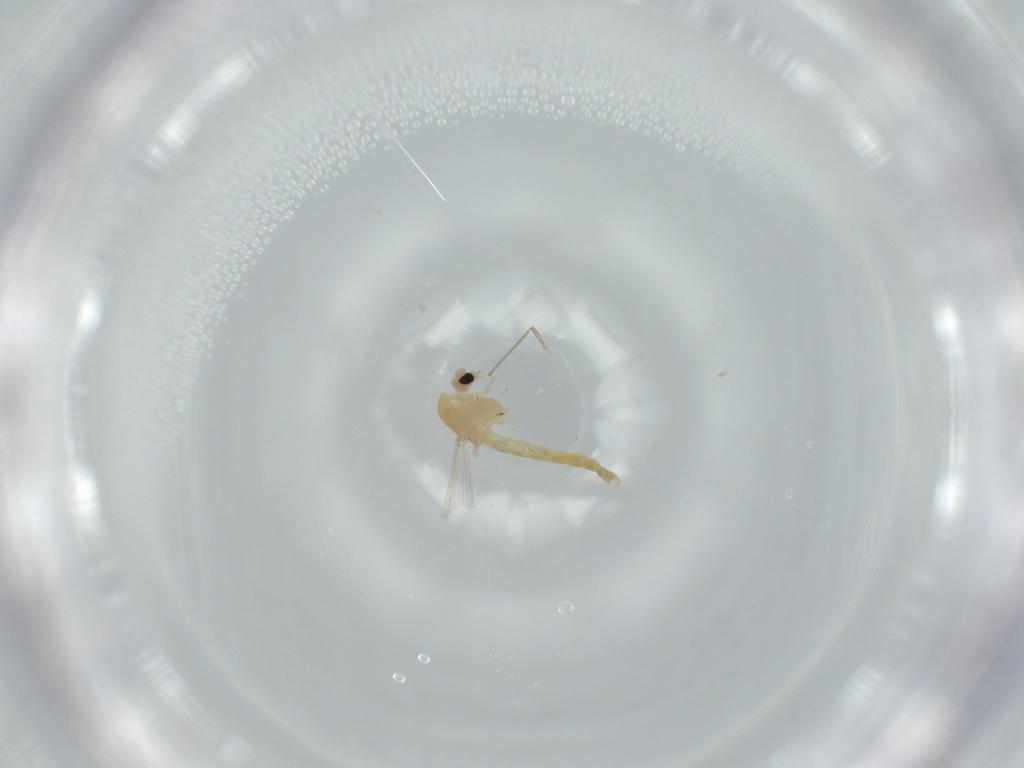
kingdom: Animalia
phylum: Arthropoda
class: Insecta
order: Diptera
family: Chironomidae
